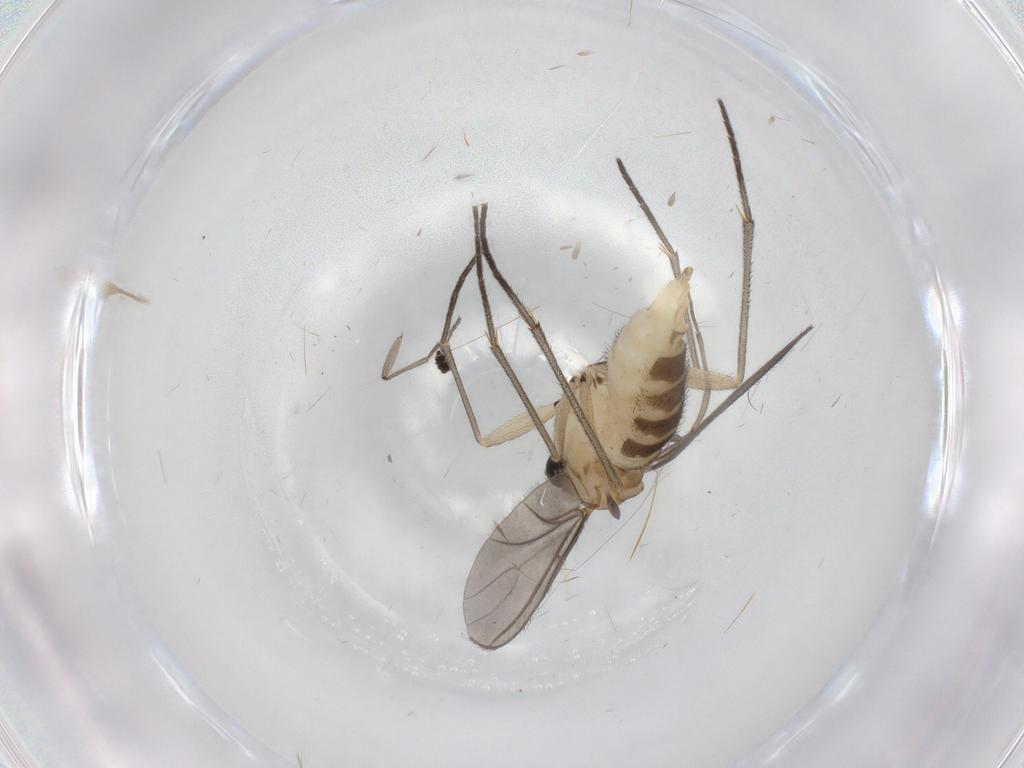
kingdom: Animalia
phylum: Arthropoda
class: Insecta
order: Diptera
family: Sciaridae
